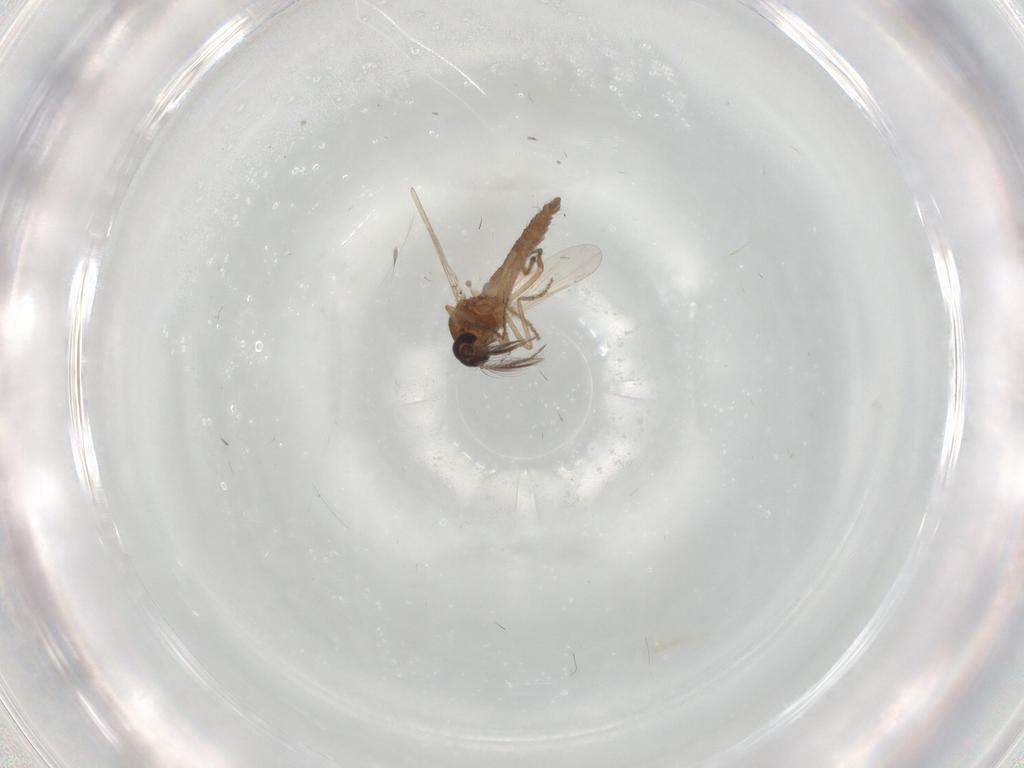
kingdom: Animalia
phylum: Arthropoda
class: Insecta
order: Diptera
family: Ceratopogonidae
